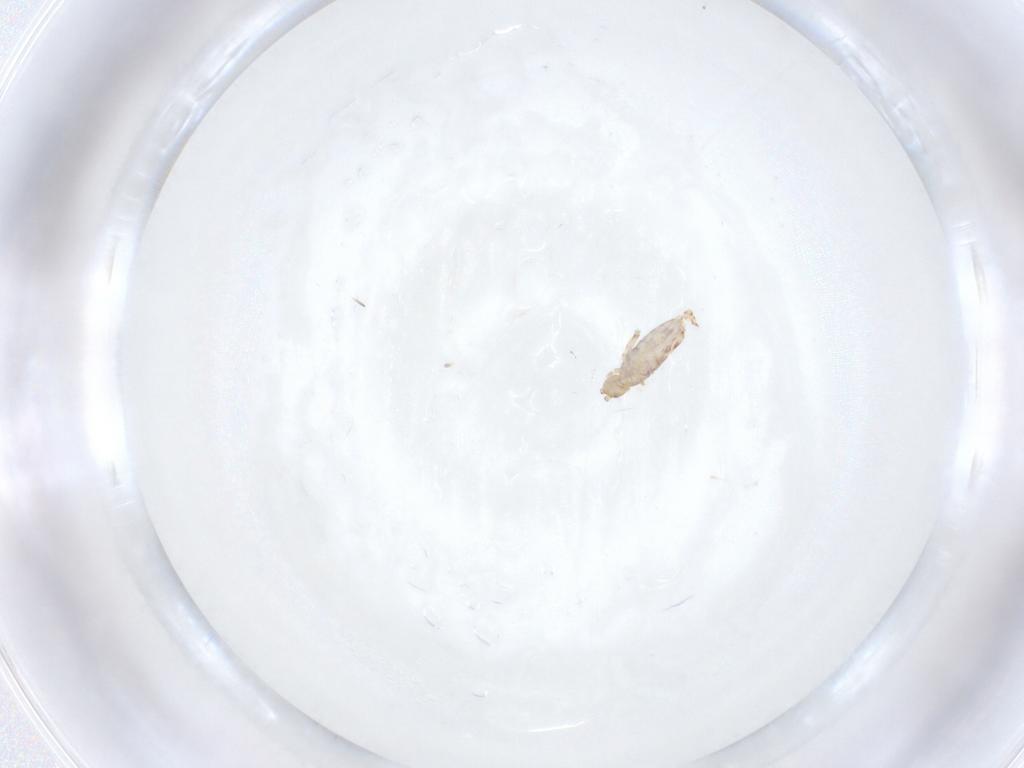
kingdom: Animalia
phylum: Arthropoda
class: Collembola
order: Entomobryomorpha
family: Entomobryidae
